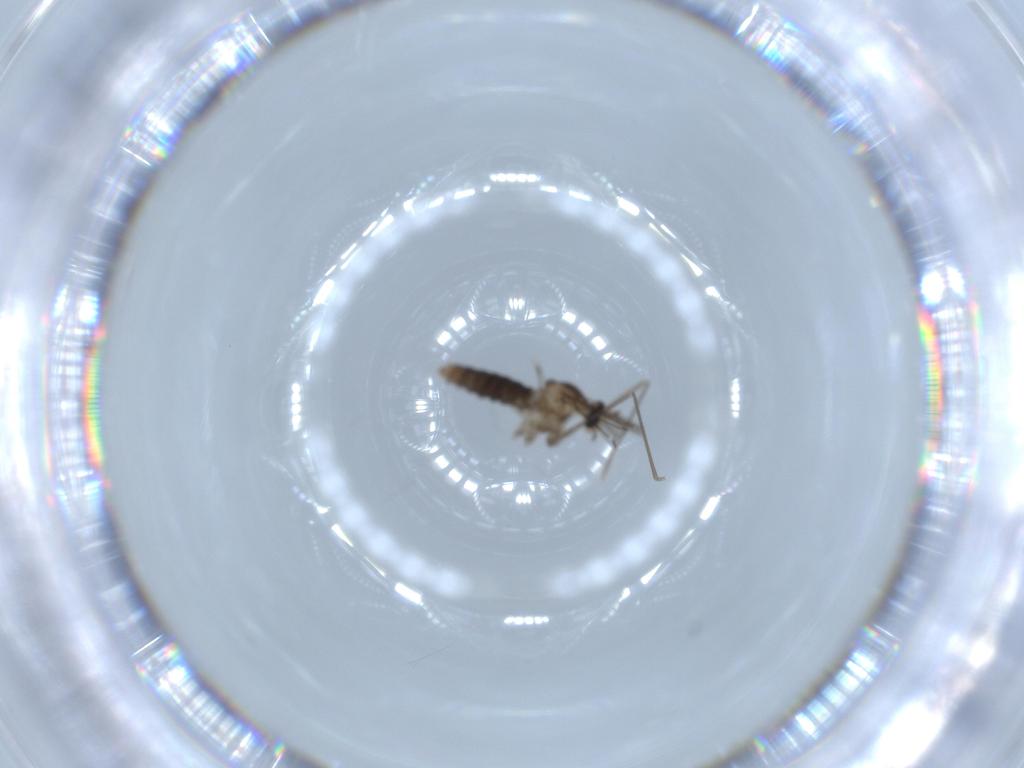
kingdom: Animalia
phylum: Arthropoda
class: Insecta
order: Diptera
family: Cecidomyiidae
